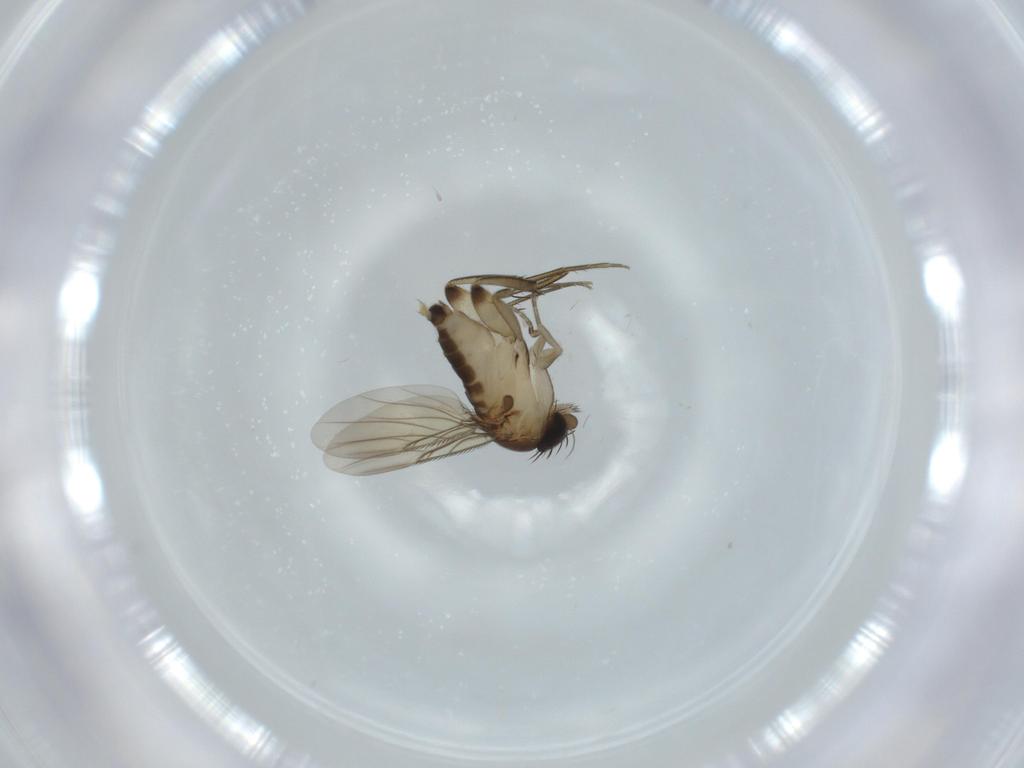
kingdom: Animalia
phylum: Arthropoda
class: Insecta
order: Diptera
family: Phoridae
